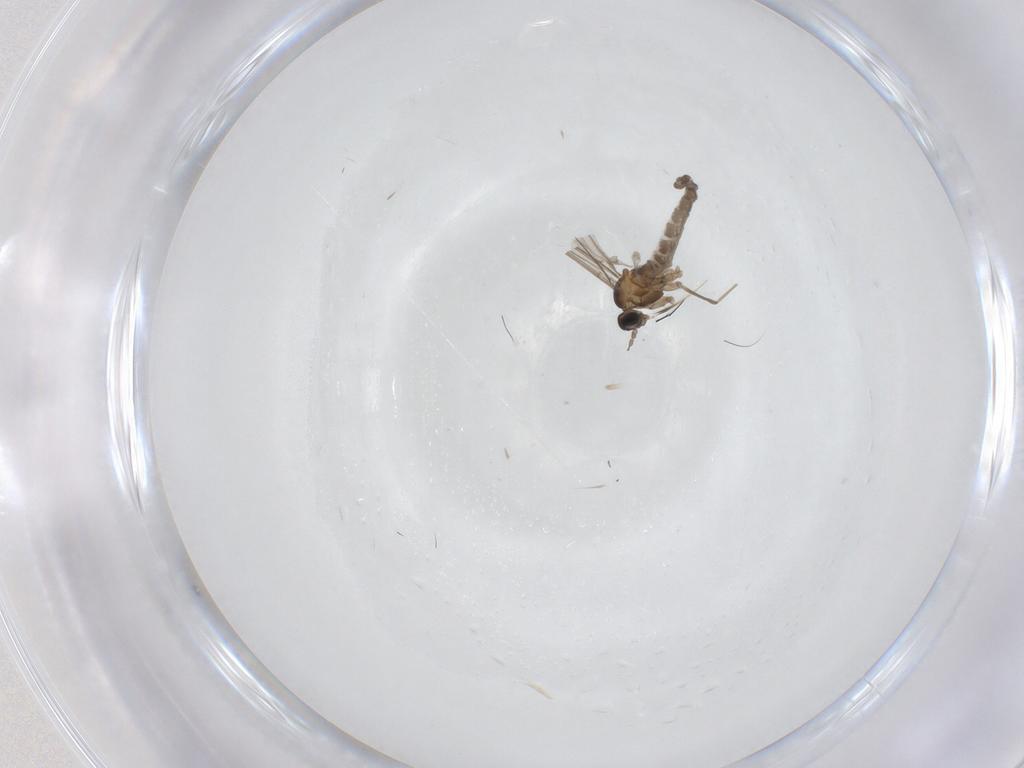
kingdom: Animalia
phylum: Arthropoda
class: Insecta
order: Diptera
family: Cecidomyiidae
